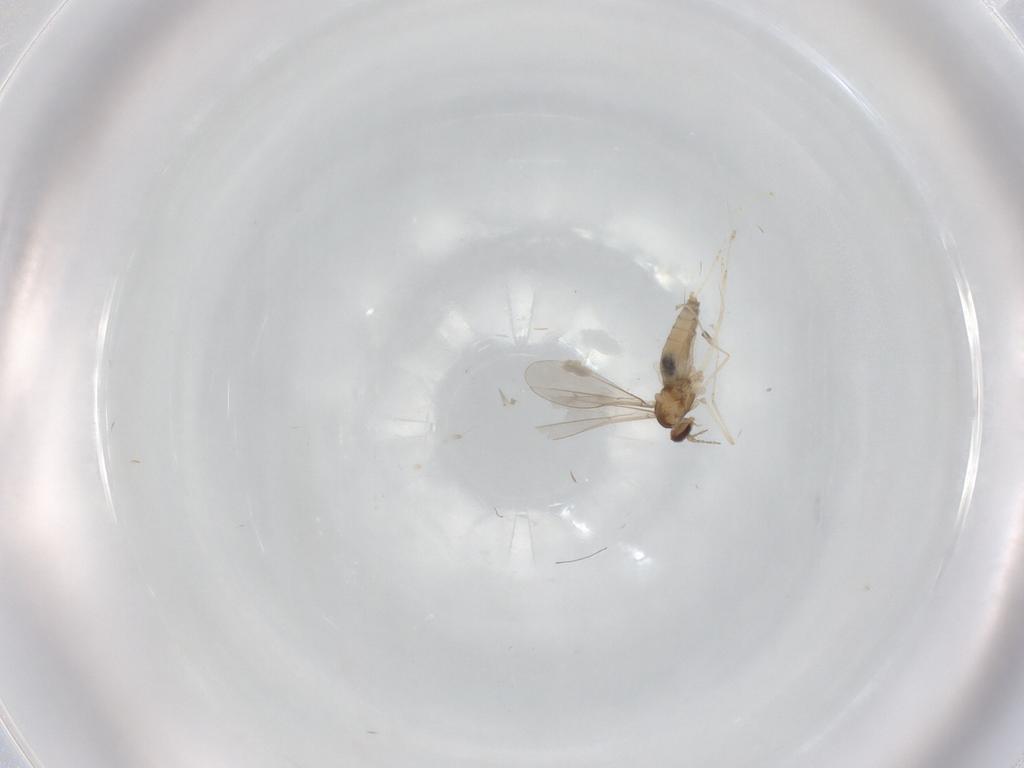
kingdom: Animalia
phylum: Arthropoda
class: Insecta
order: Diptera
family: Cecidomyiidae
